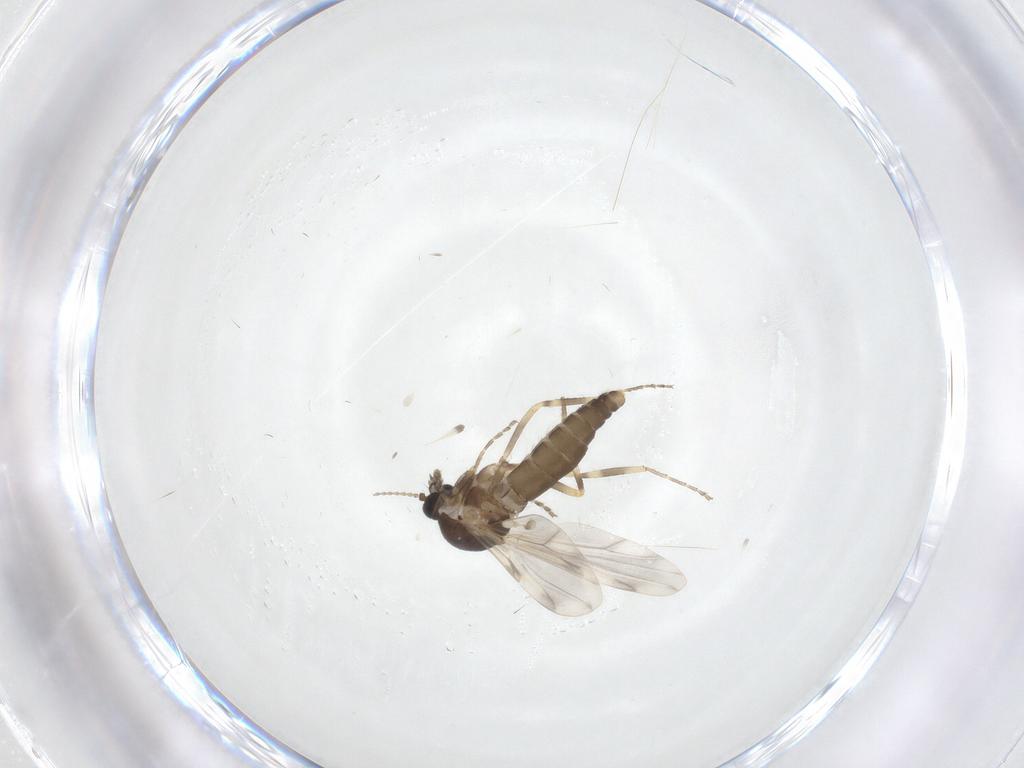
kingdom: Animalia
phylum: Arthropoda
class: Insecta
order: Diptera
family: Ceratopogonidae
